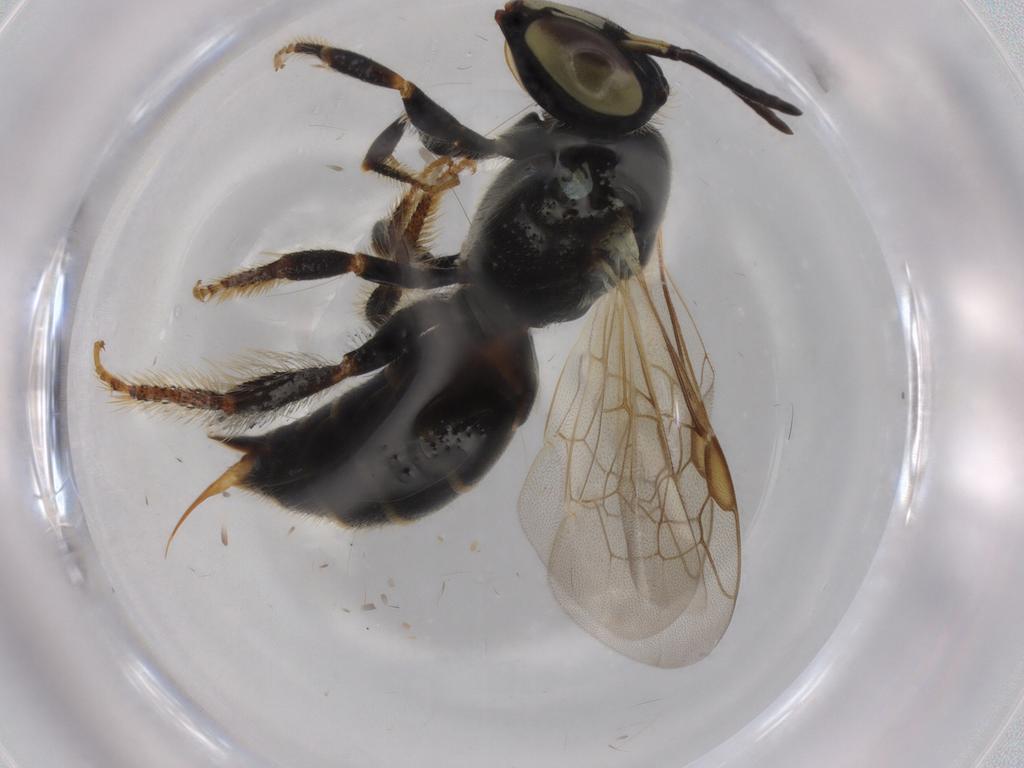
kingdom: Animalia
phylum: Arthropoda
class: Insecta
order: Hymenoptera
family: Apidae
